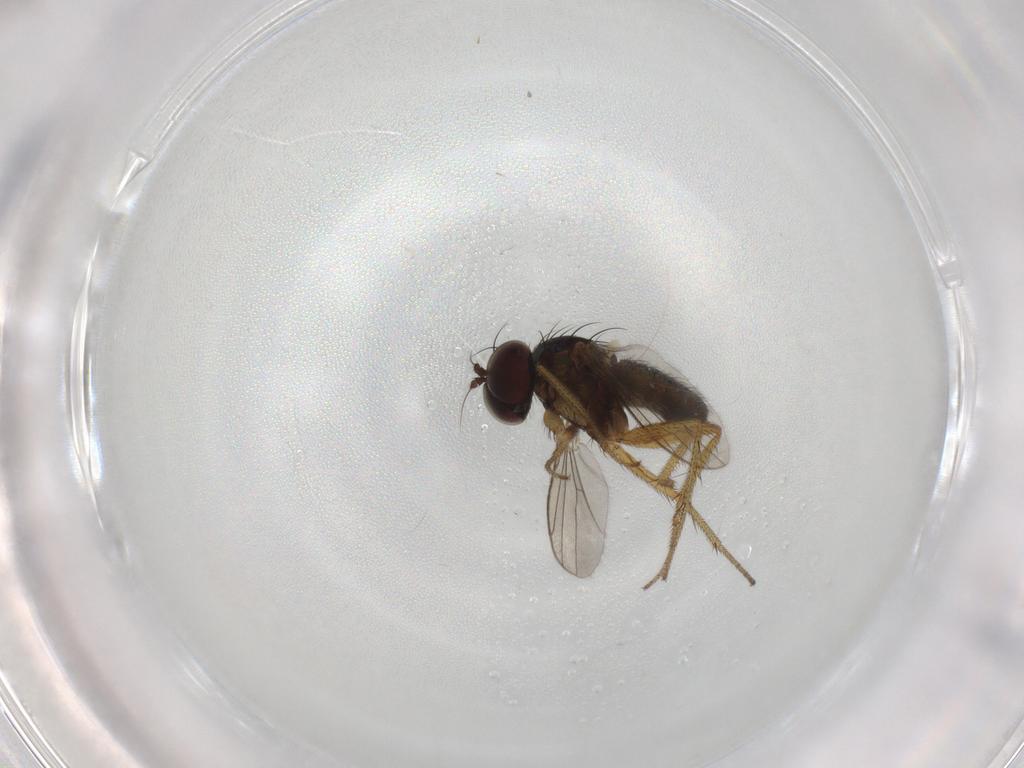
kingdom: Animalia
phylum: Arthropoda
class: Insecta
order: Diptera
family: Dolichopodidae
